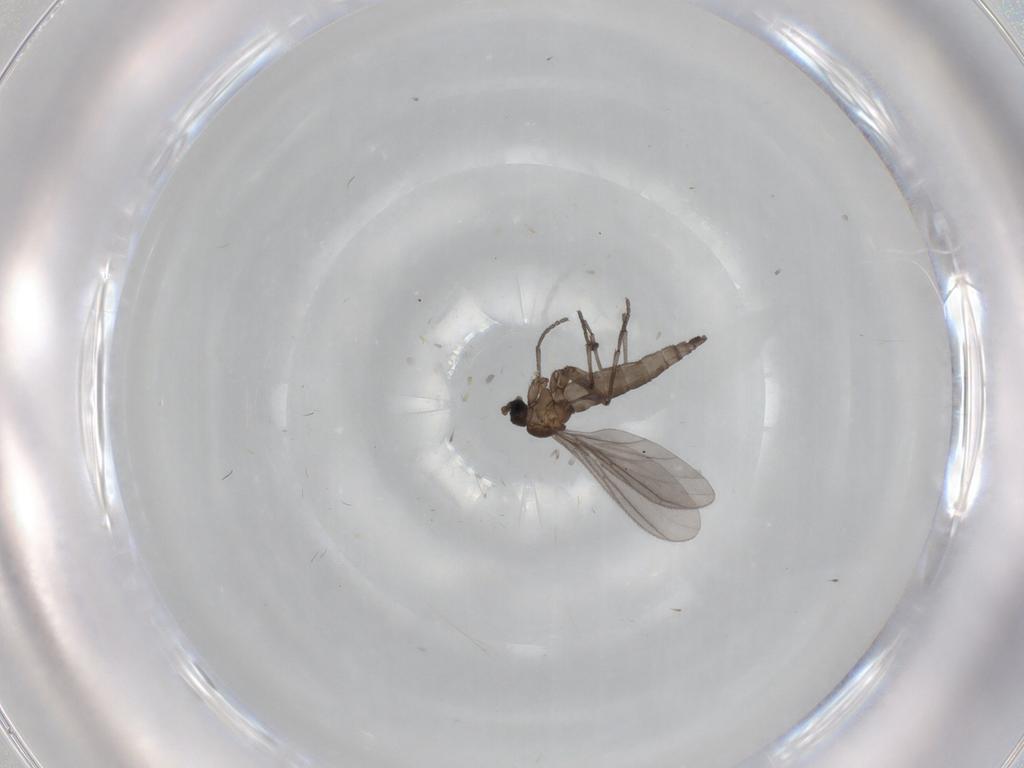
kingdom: Animalia
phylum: Arthropoda
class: Insecta
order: Diptera
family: Sciaridae
